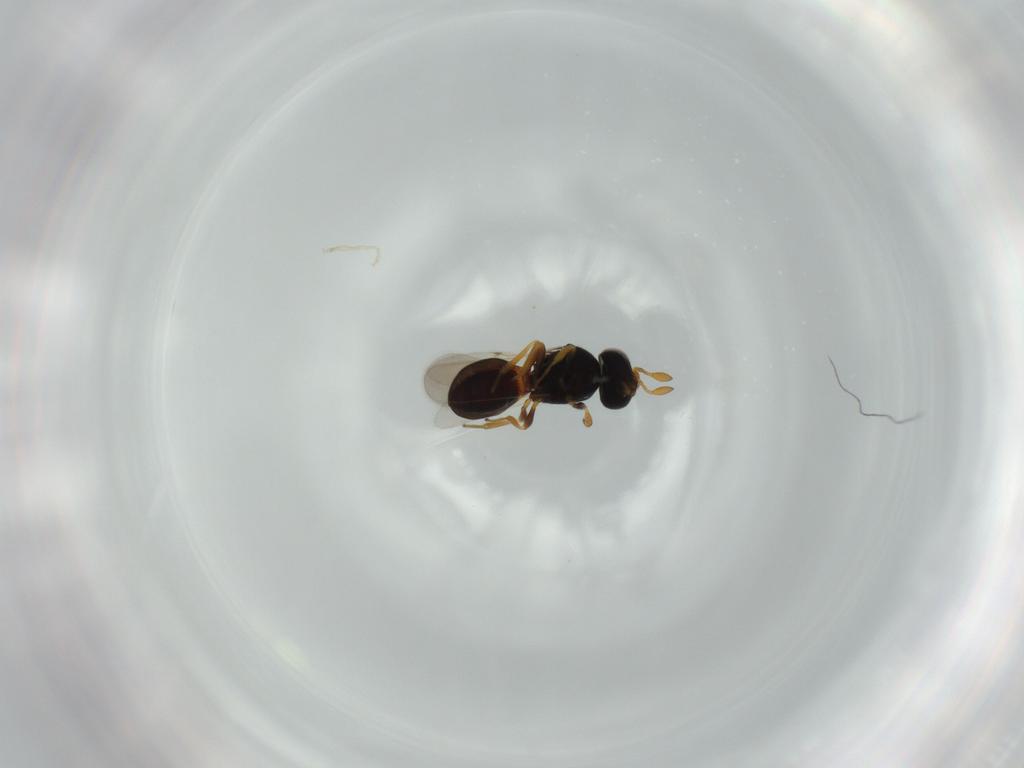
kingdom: Animalia
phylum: Arthropoda
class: Insecta
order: Hymenoptera
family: Scelionidae
